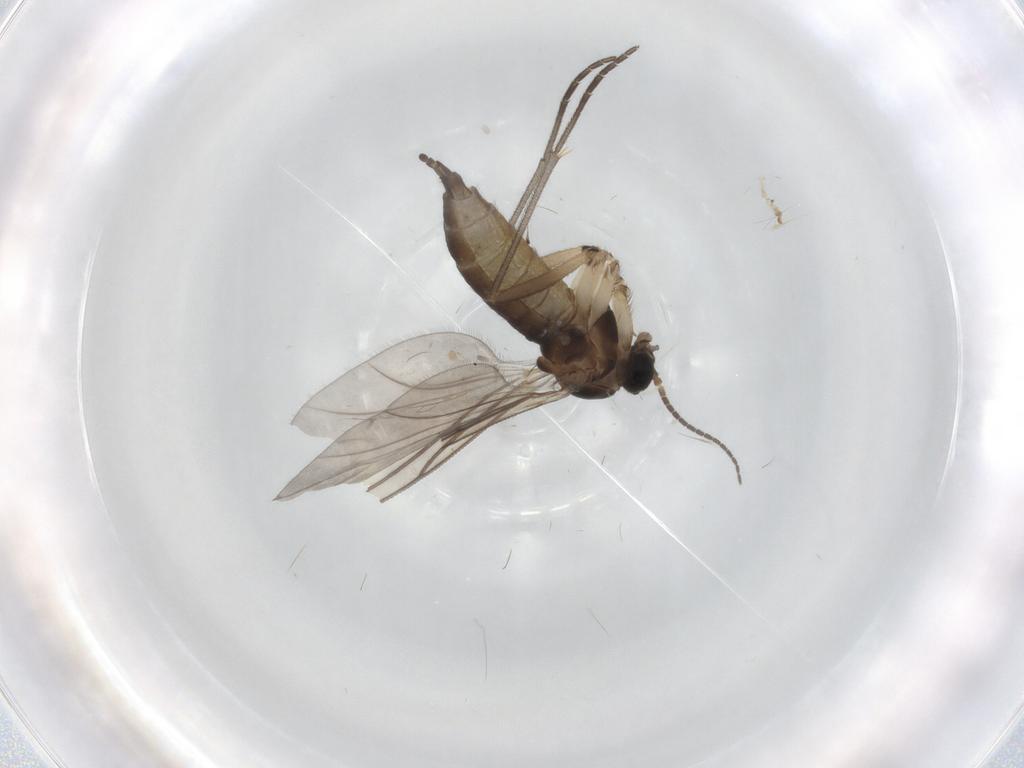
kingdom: Animalia
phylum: Arthropoda
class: Insecta
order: Diptera
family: Sciaridae
